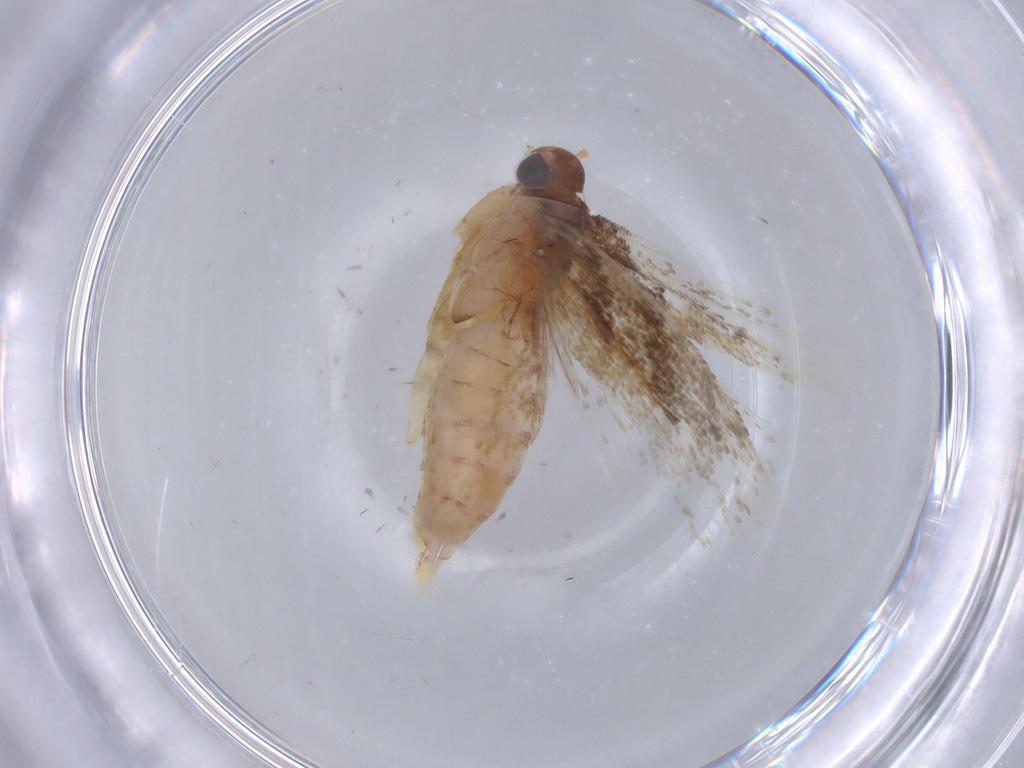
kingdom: Animalia
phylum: Arthropoda
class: Insecta
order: Lepidoptera
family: Gelechiidae
